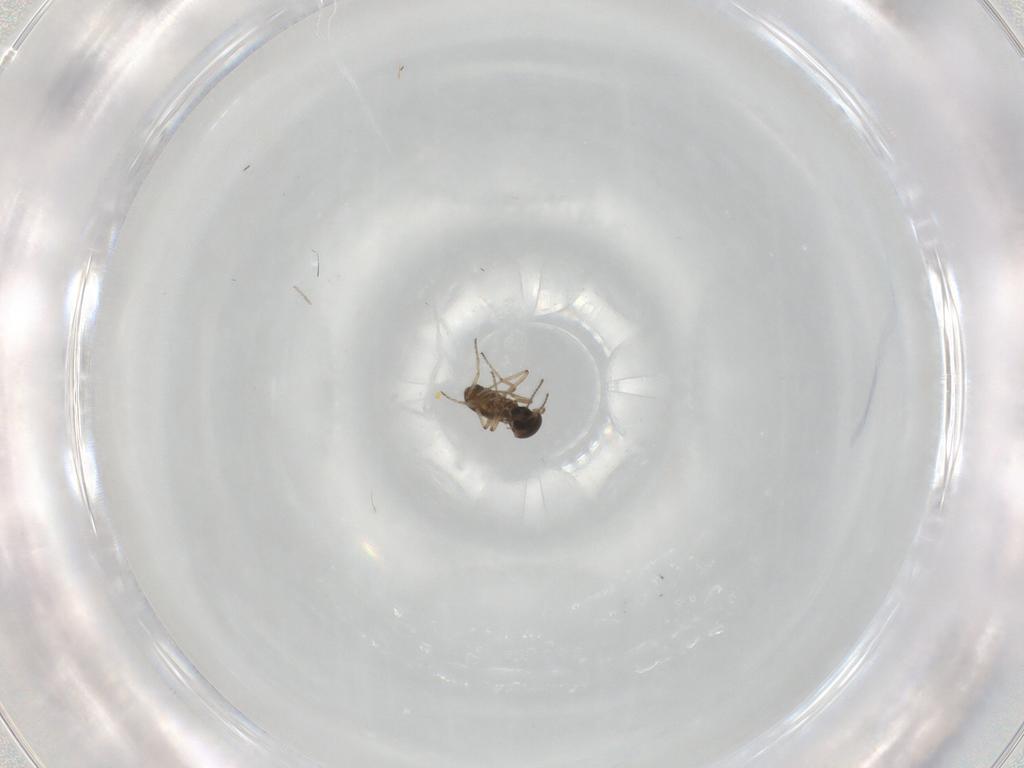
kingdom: Animalia
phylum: Arthropoda
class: Insecta
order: Diptera
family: Ceratopogonidae
